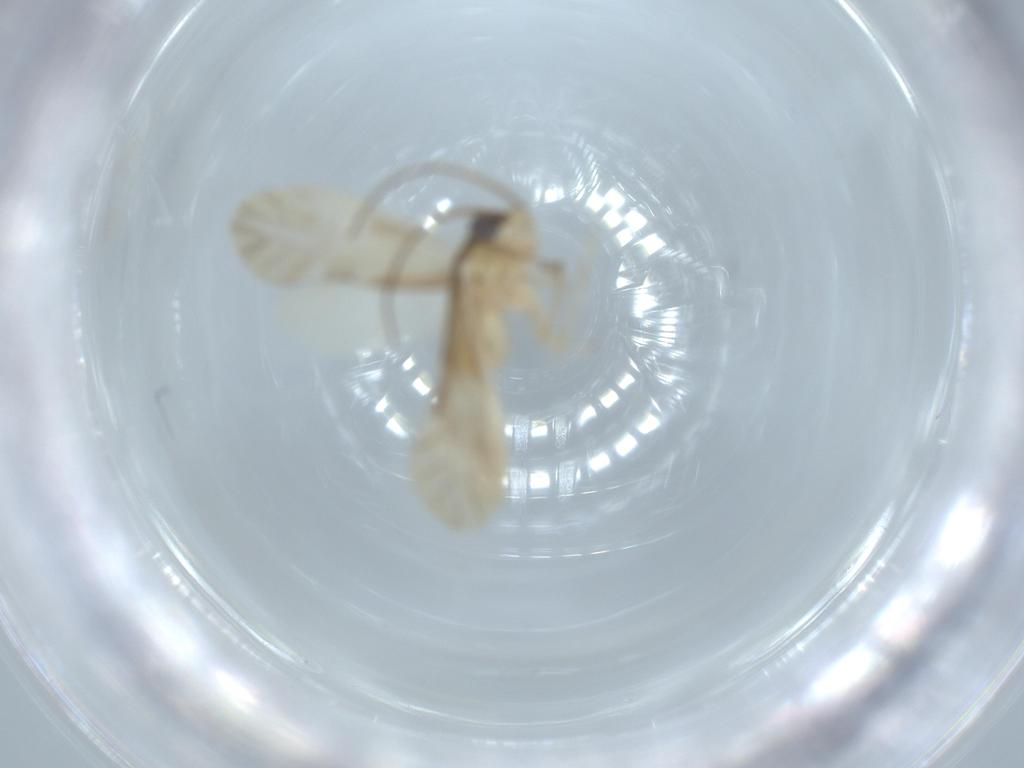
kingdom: Animalia
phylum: Arthropoda
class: Insecta
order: Psocodea
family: Caeciliusidae
